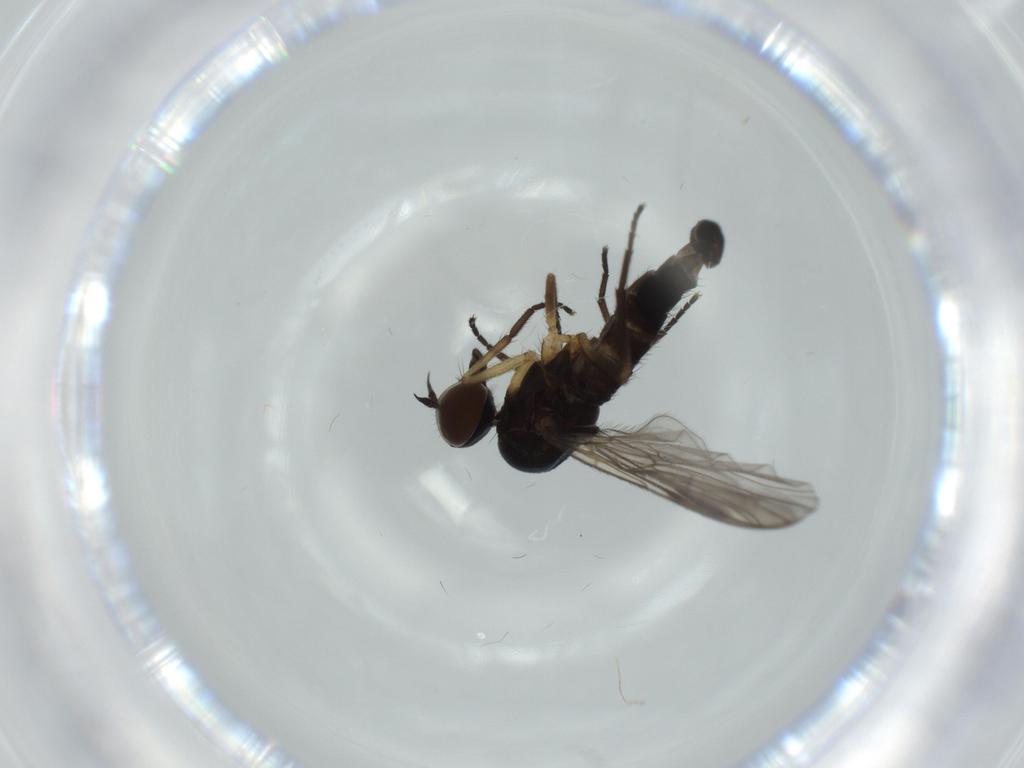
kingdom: Animalia
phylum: Arthropoda
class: Insecta
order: Diptera
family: Empididae
